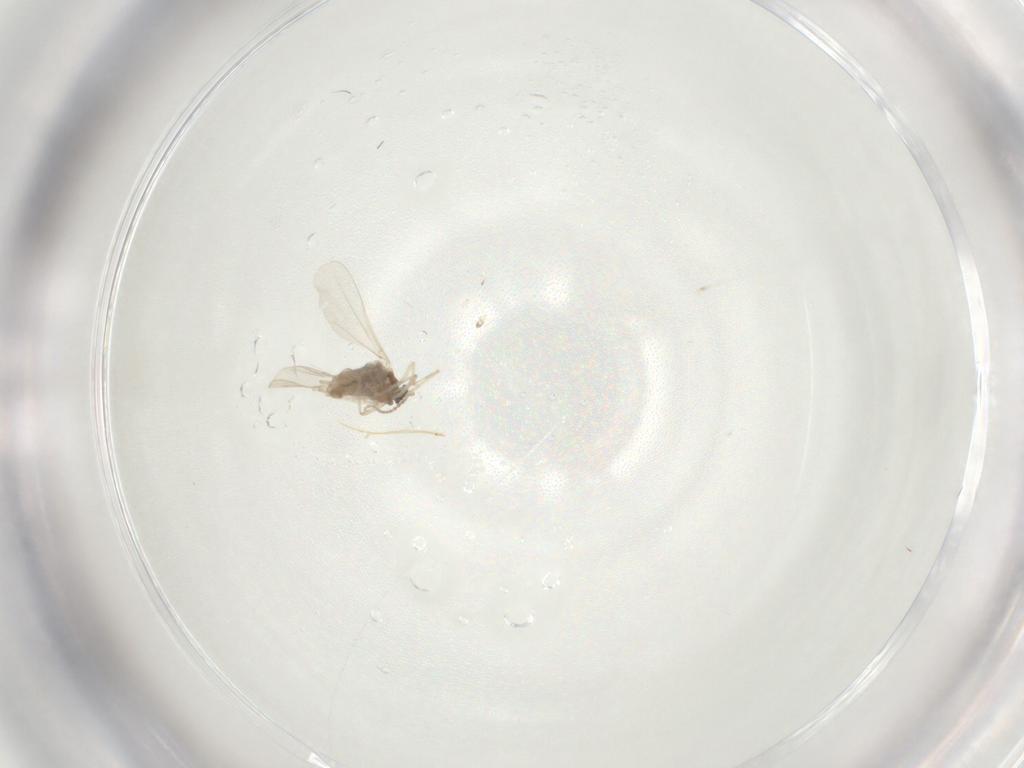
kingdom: Animalia
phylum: Arthropoda
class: Insecta
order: Diptera
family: Cecidomyiidae
